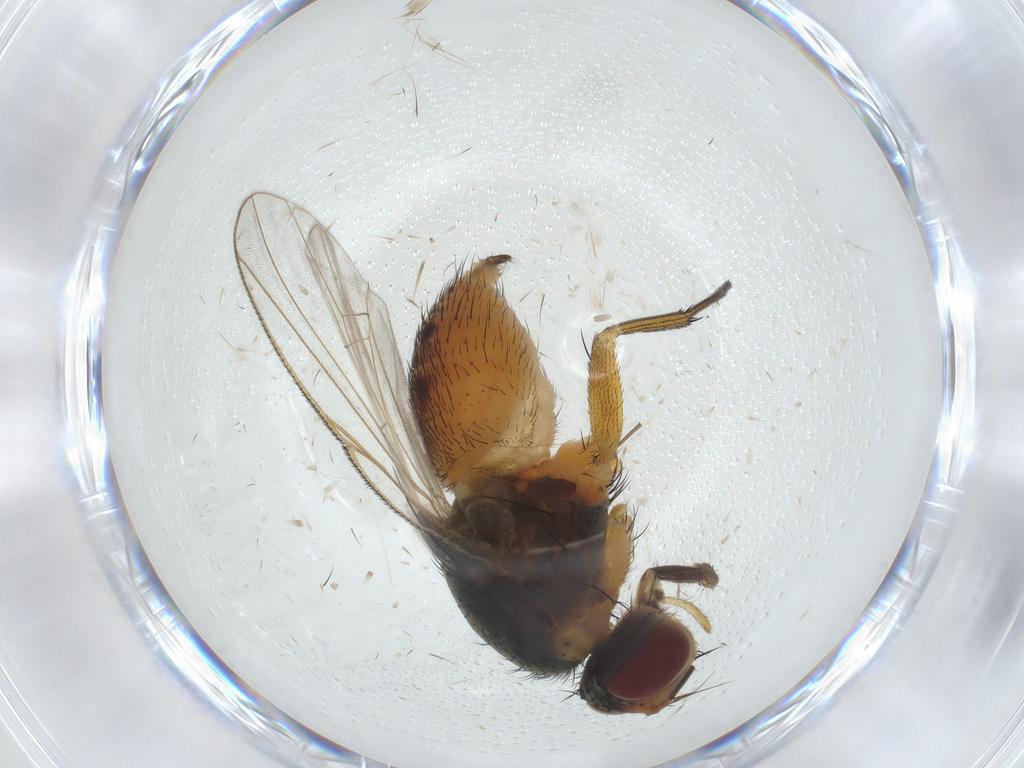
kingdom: Animalia
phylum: Arthropoda
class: Insecta
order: Diptera
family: Muscidae
